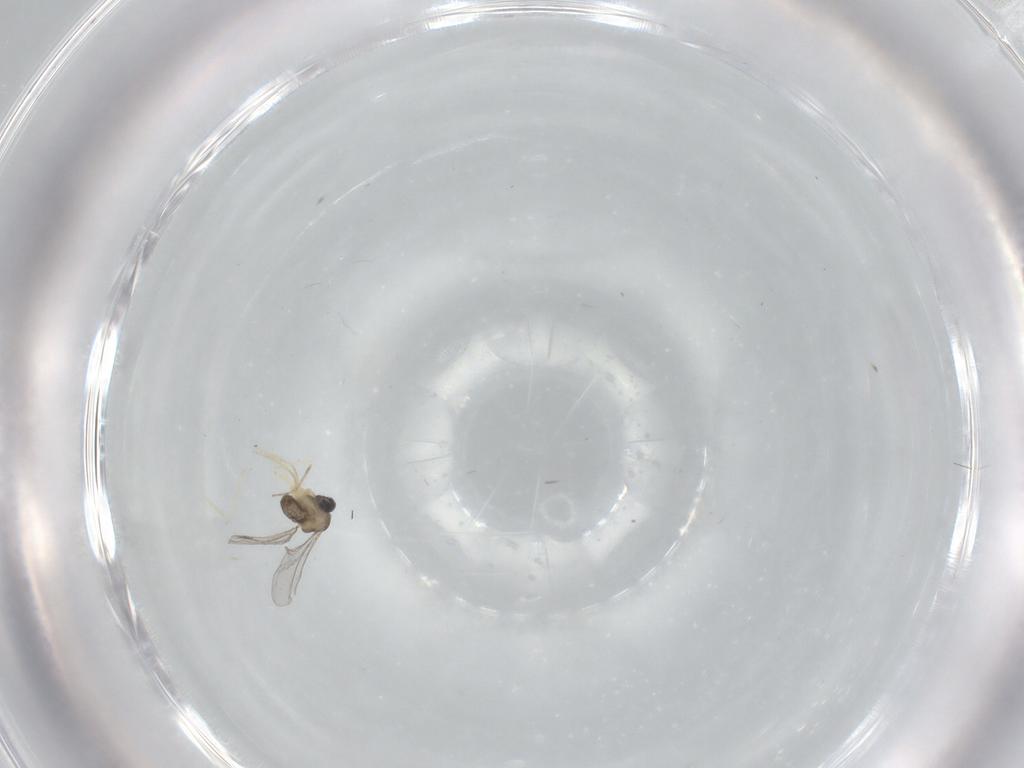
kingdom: Animalia
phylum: Arthropoda
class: Insecta
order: Diptera
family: Cecidomyiidae
